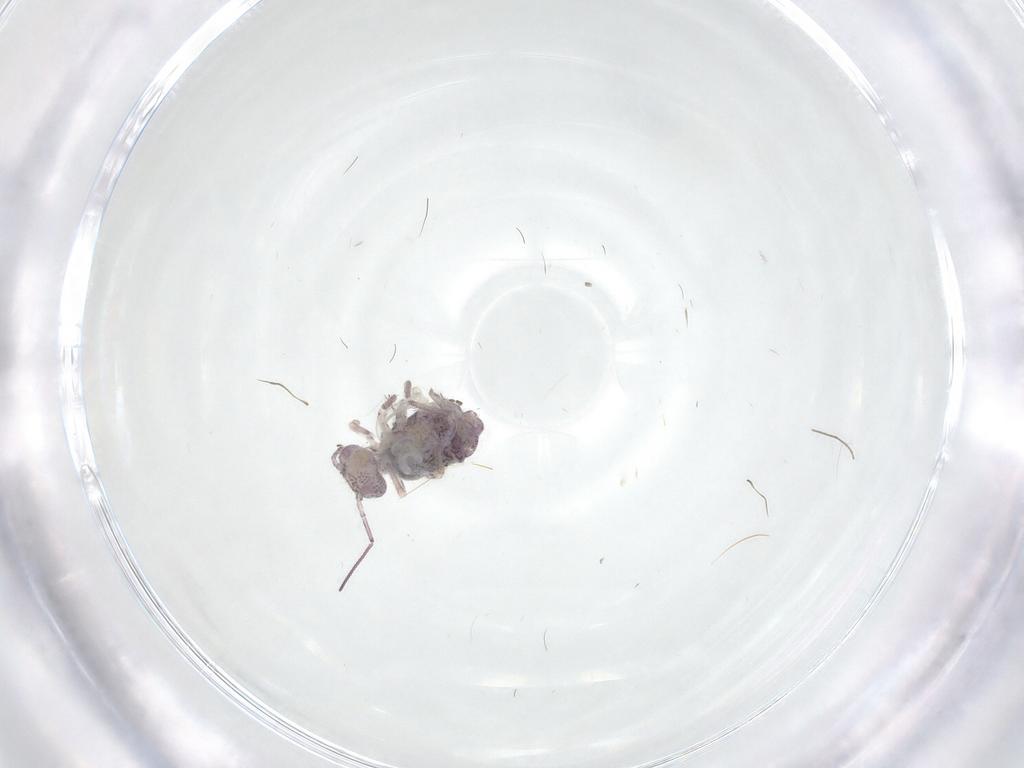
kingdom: Animalia
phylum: Arthropoda
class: Collembola
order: Symphypleona
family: Sminthuridae
